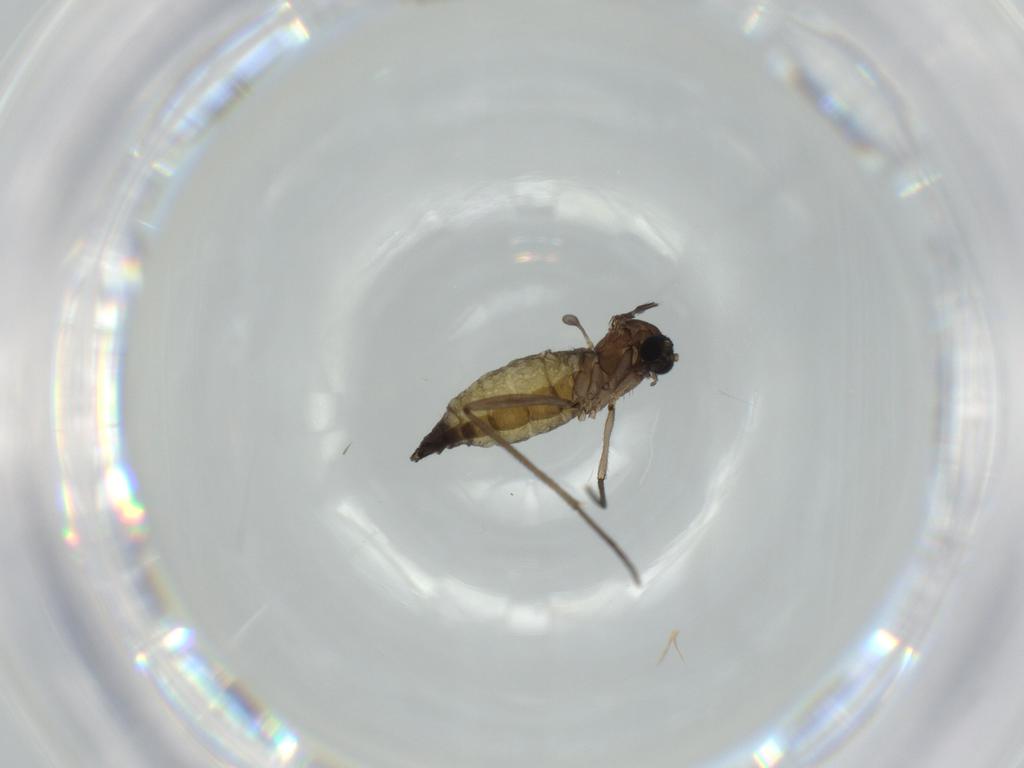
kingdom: Animalia
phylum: Arthropoda
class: Insecta
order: Diptera
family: Sciaridae
